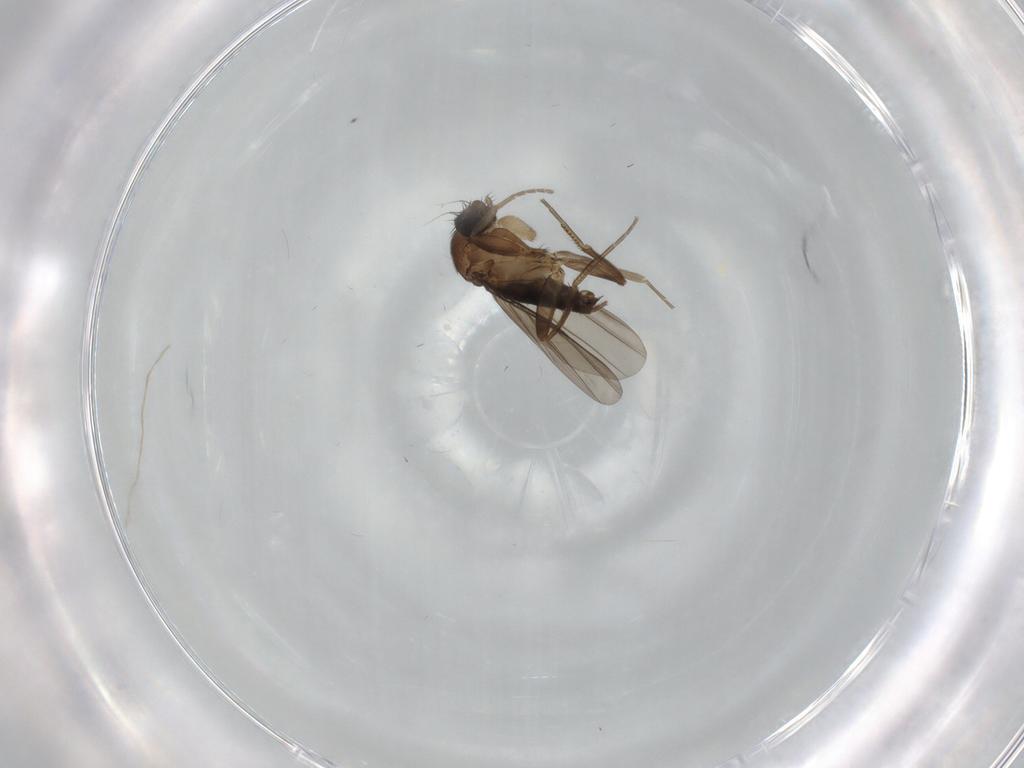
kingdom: Animalia
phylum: Arthropoda
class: Insecta
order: Diptera
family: Phoridae
